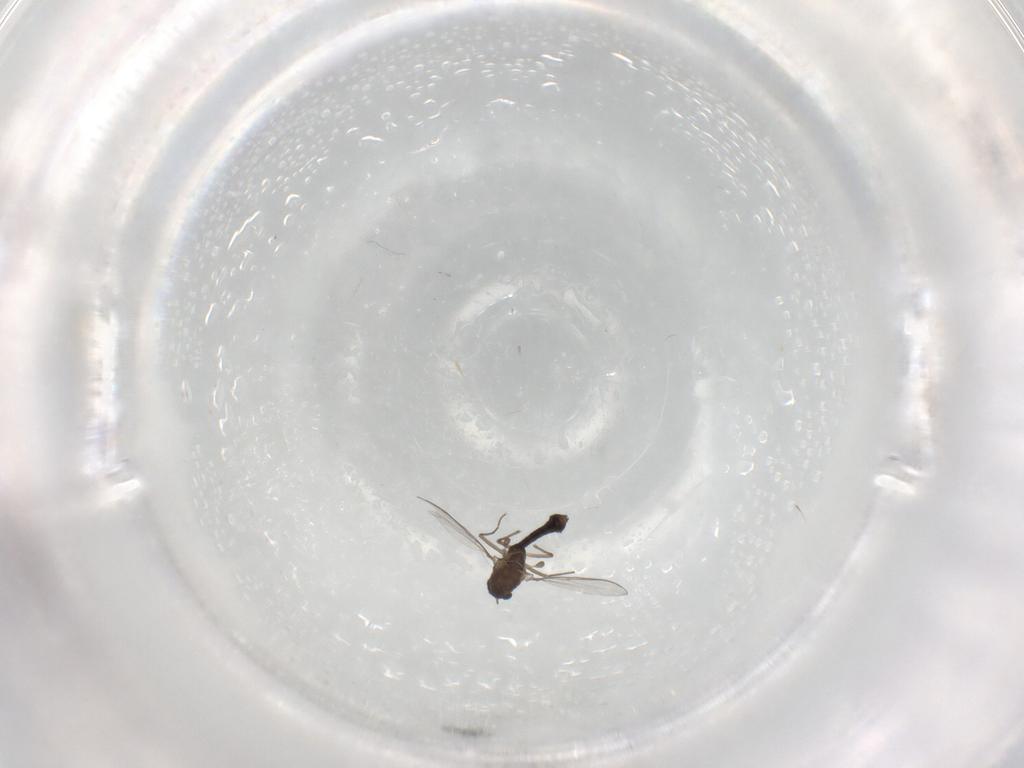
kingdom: Animalia
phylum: Arthropoda
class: Insecta
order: Diptera
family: Chironomidae
